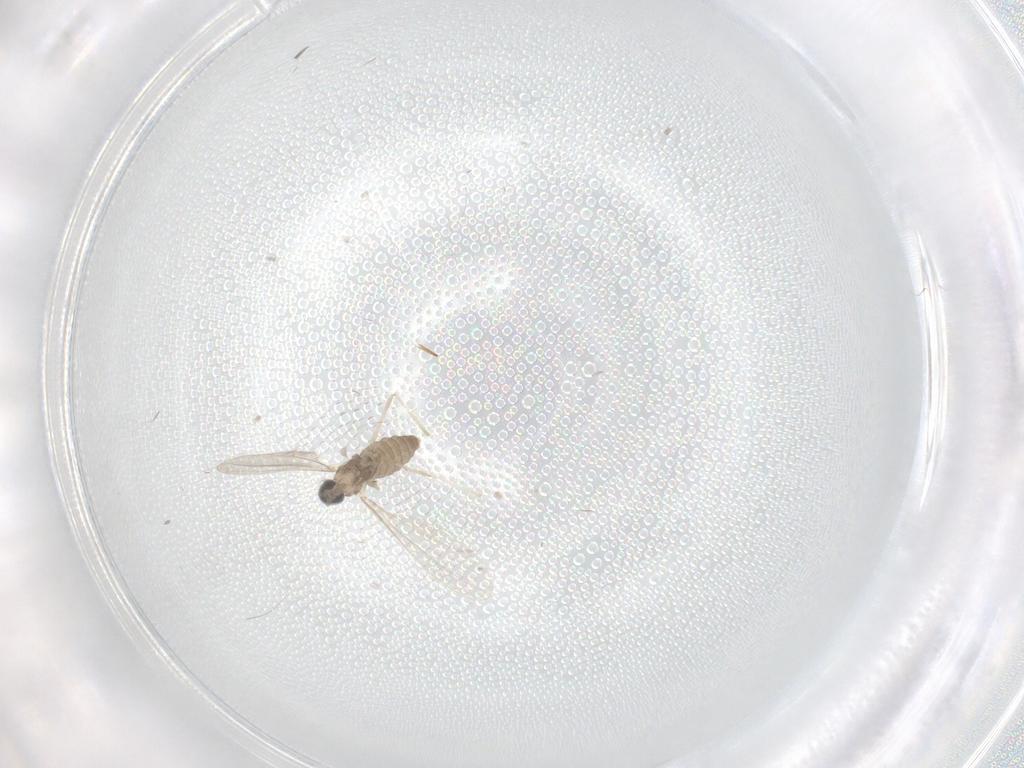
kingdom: Animalia
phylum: Arthropoda
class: Insecta
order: Diptera
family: Cecidomyiidae
